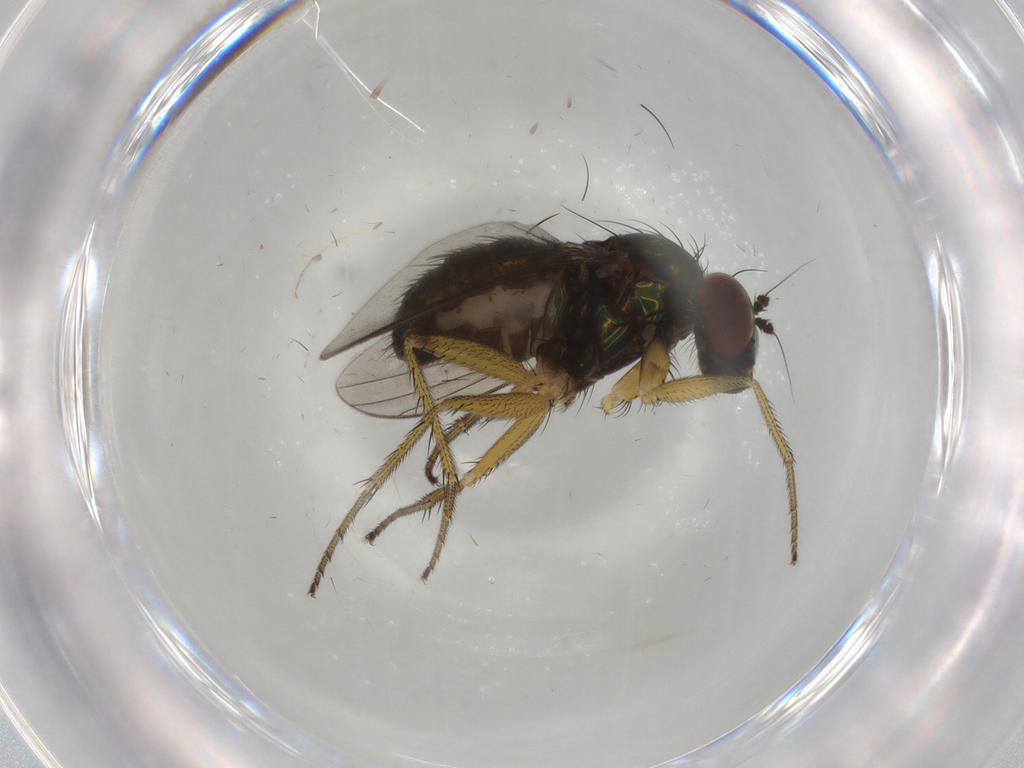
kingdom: Animalia
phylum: Arthropoda
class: Insecta
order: Diptera
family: Dolichopodidae
